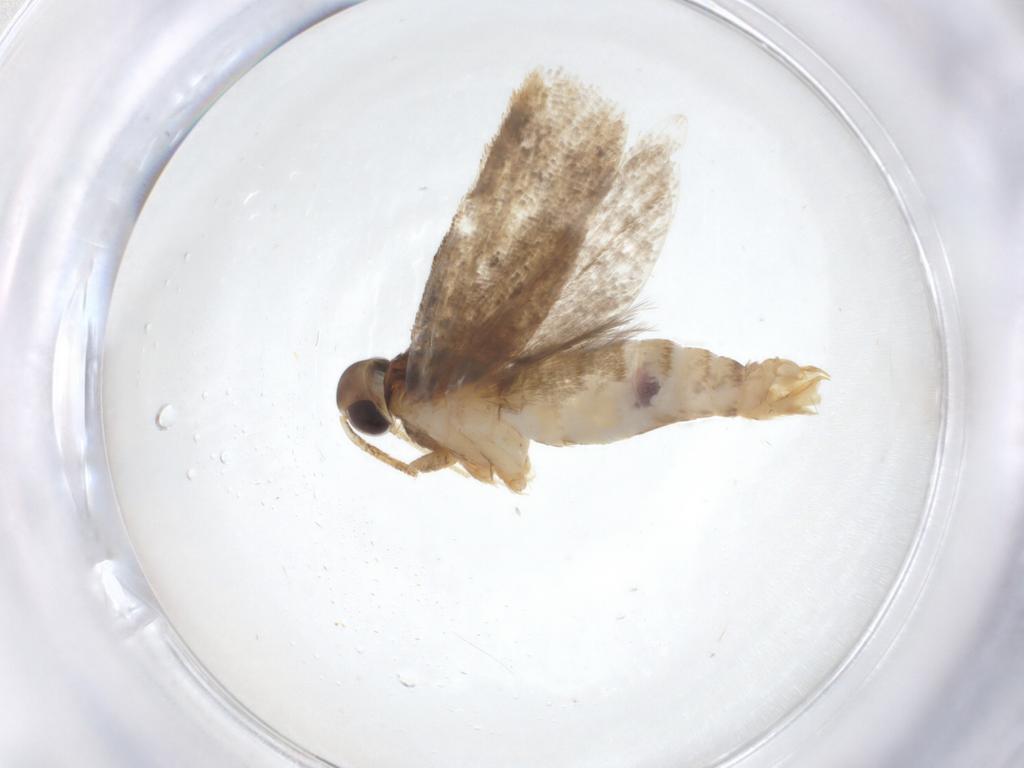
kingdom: Animalia
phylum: Arthropoda
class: Insecta
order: Lepidoptera
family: Oecophoridae
